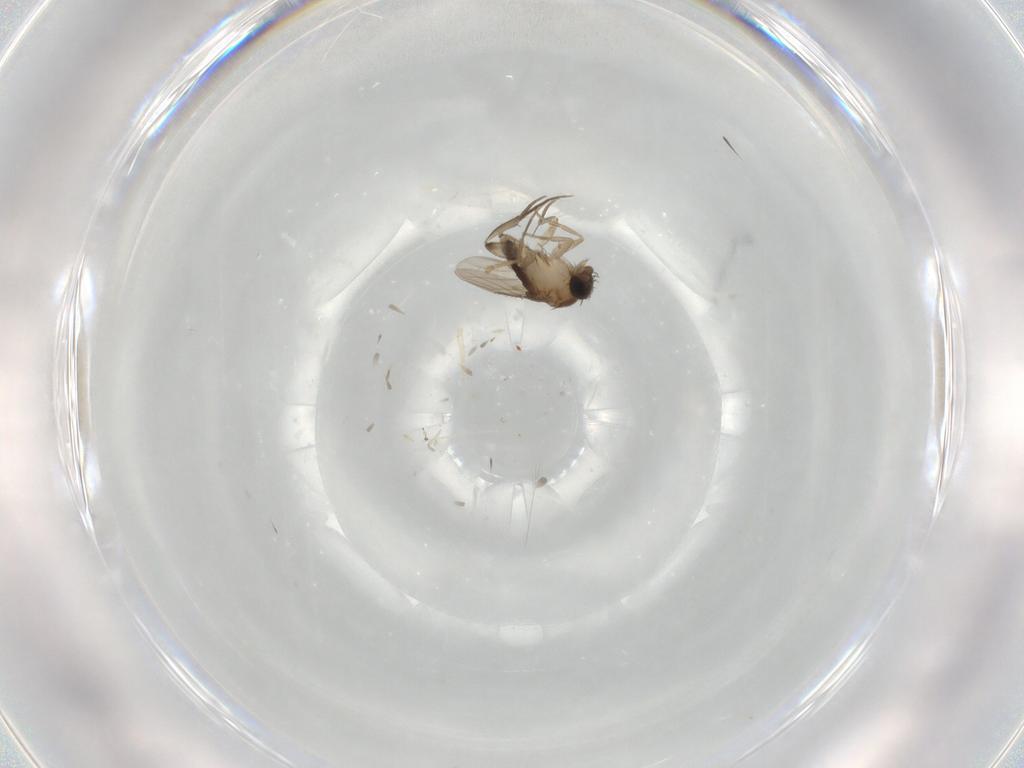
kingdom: Animalia
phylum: Arthropoda
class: Insecta
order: Diptera
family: Phoridae
